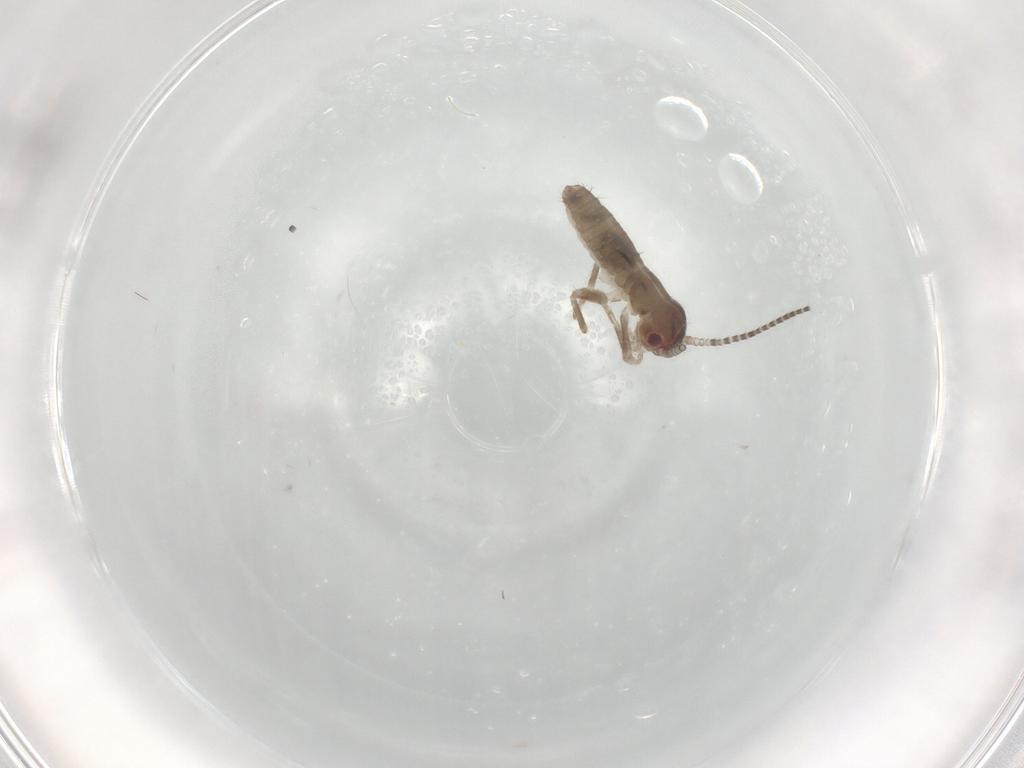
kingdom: Animalia
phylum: Arthropoda
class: Insecta
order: Orthoptera
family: Mogoplistidae
